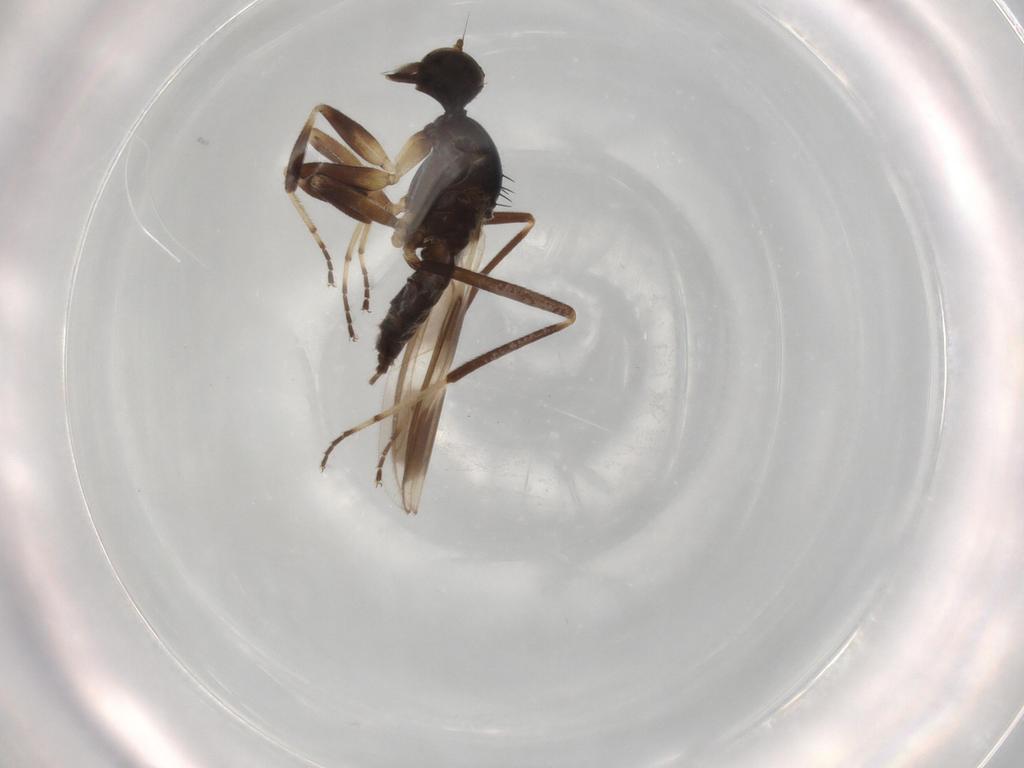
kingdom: Animalia
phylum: Arthropoda
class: Insecta
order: Diptera
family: Hybotidae
